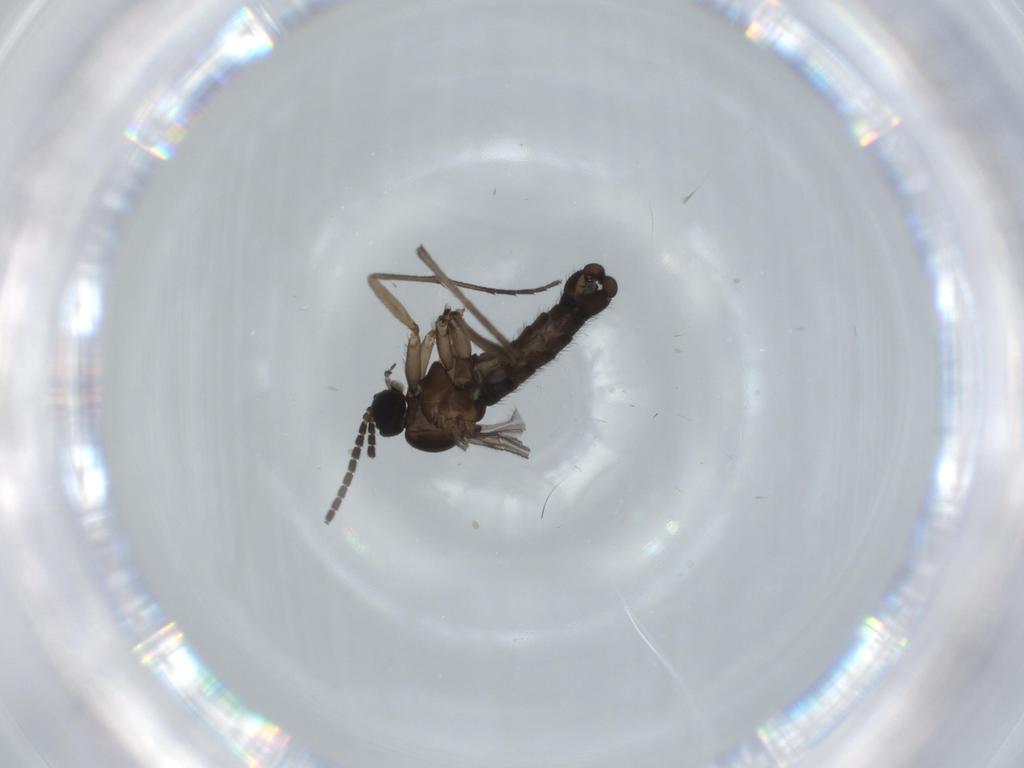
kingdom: Animalia
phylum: Arthropoda
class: Insecta
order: Diptera
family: Sciaridae
